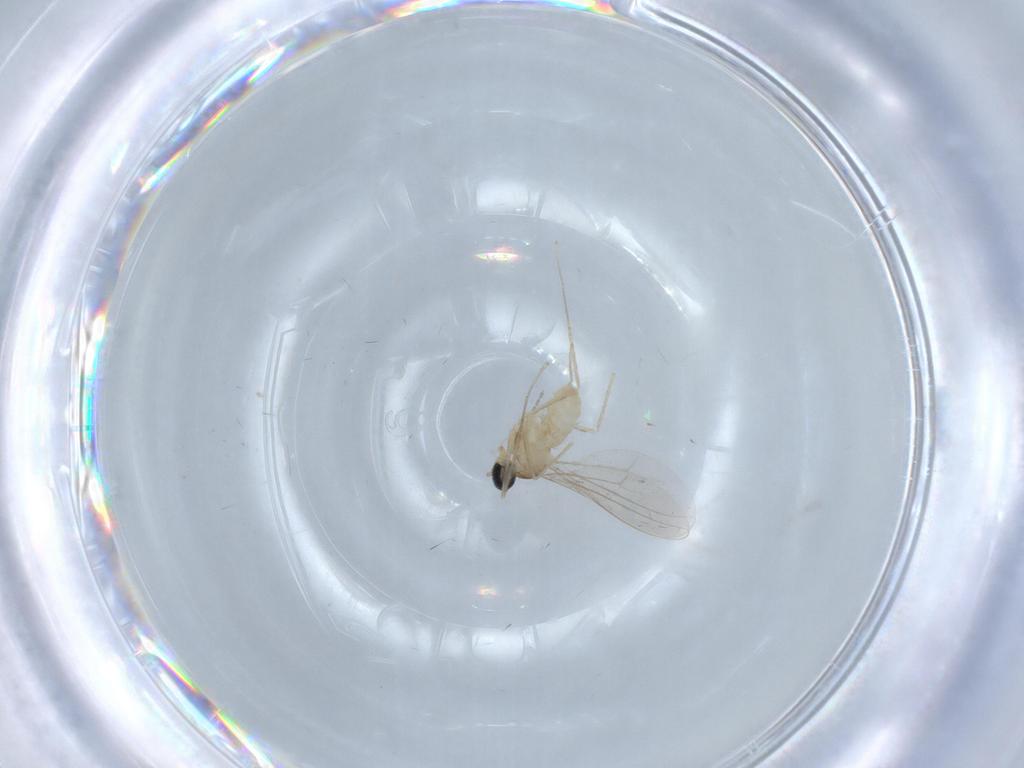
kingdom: Animalia
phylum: Arthropoda
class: Insecta
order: Diptera
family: Cecidomyiidae
